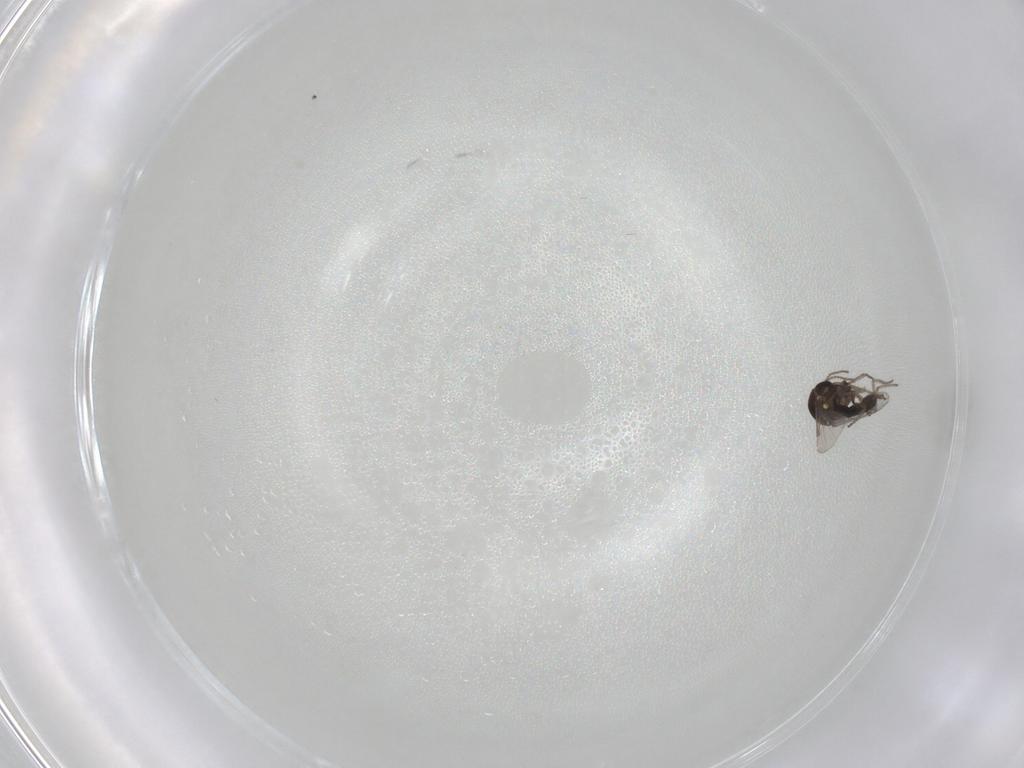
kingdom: Animalia
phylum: Arthropoda
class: Insecta
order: Diptera
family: Ceratopogonidae
